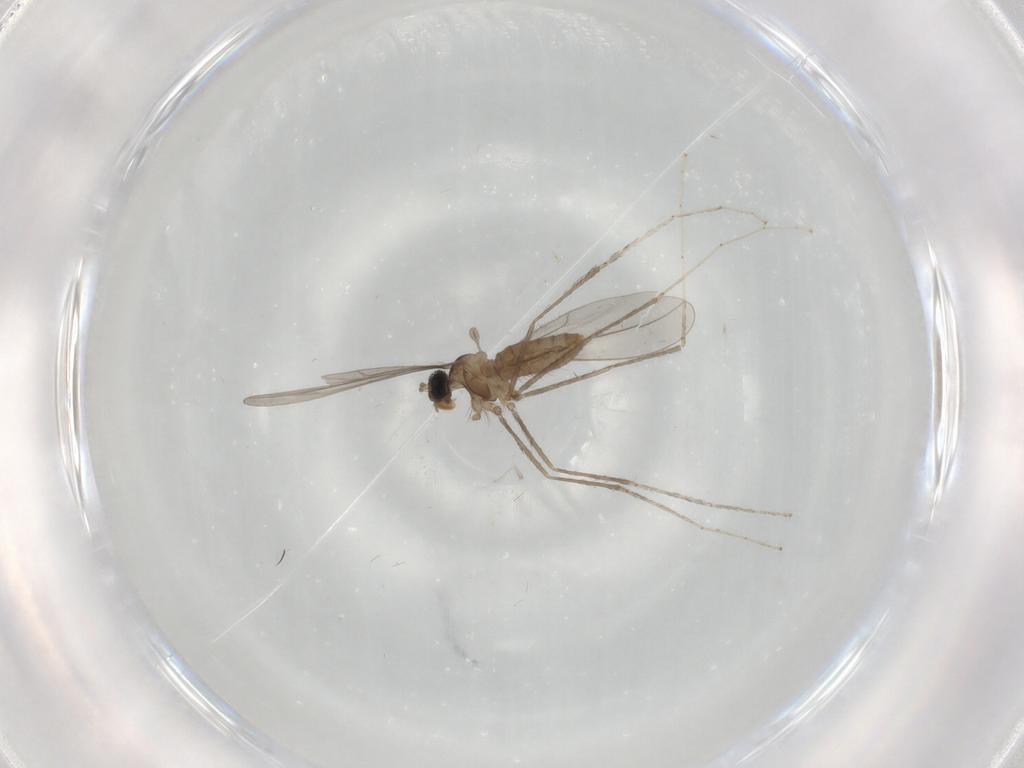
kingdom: Animalia
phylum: Arthropoda
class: Insecta
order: Diptera
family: Cecidomyiidae
